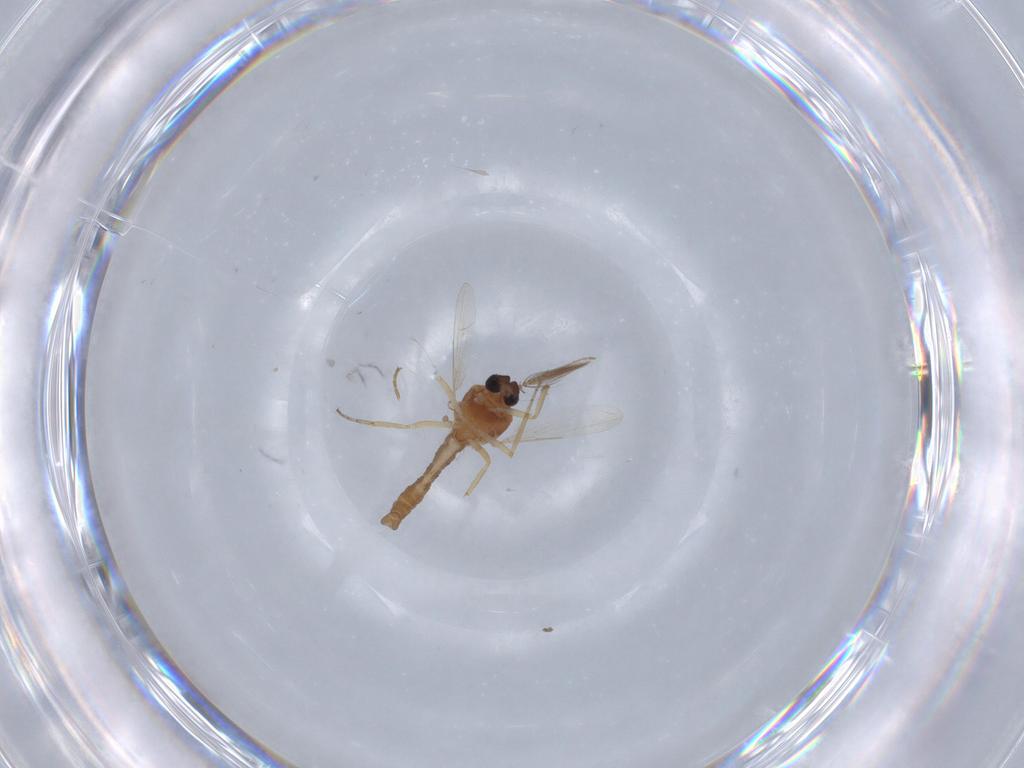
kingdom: Animalia
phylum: Arthropoda
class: Insecta
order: Diptera
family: Ceratopogonidae
